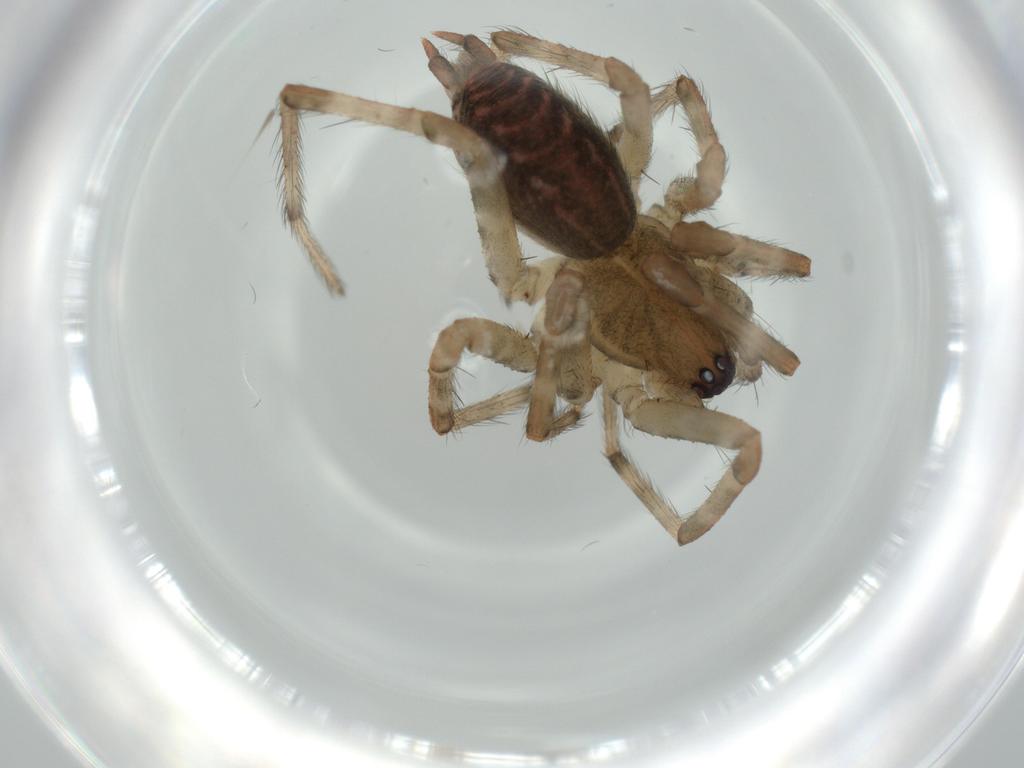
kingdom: Animalia
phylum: Arthropoda
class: Arachnida
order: Araneae
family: Agelenidae
